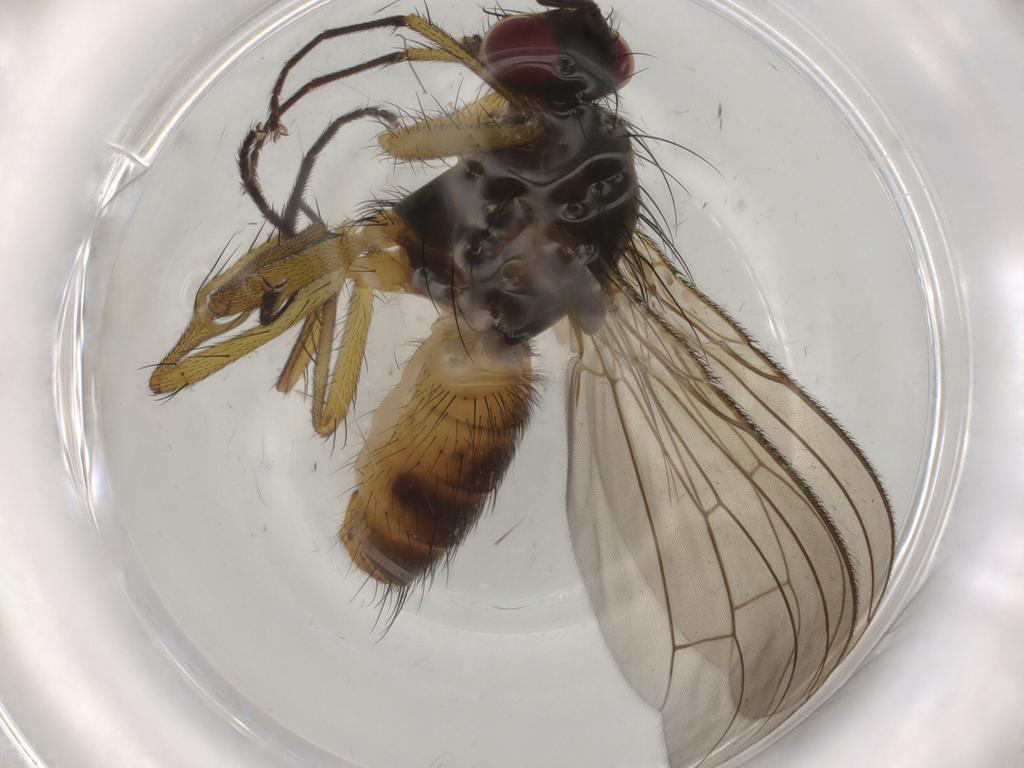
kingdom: Animalia
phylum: Arthropoda
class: Insecta
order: Diptera
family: Muscidae
